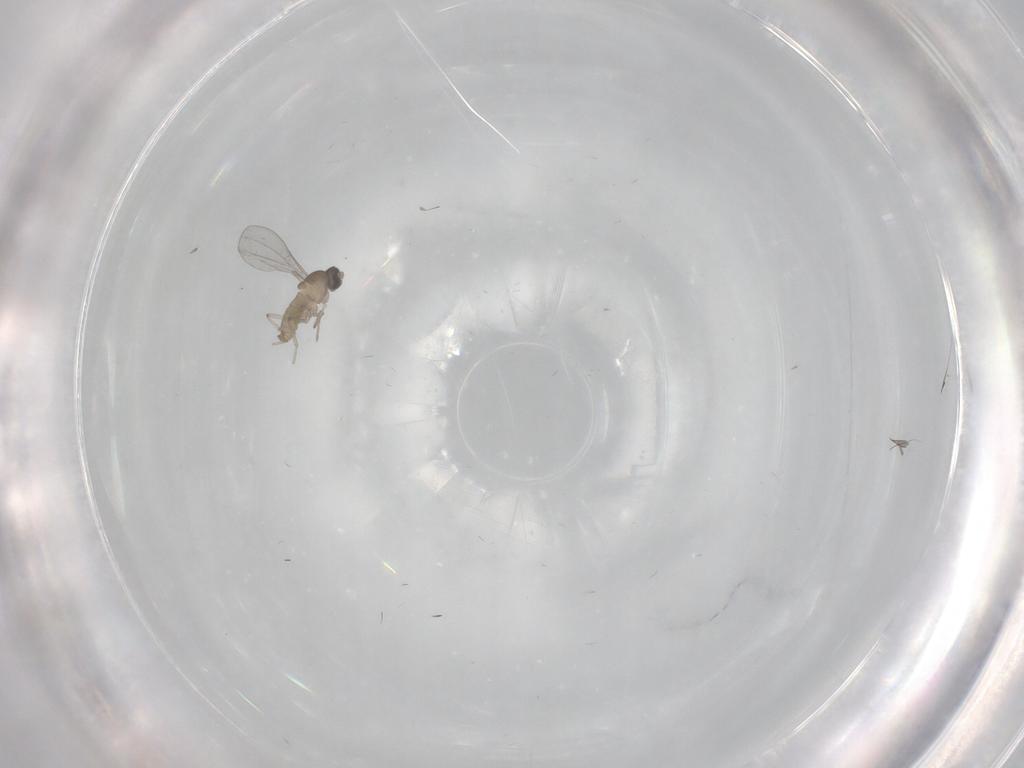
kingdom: Animalia
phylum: Arthropoda
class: Insecta
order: Diptera
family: Cecidomyiidae
